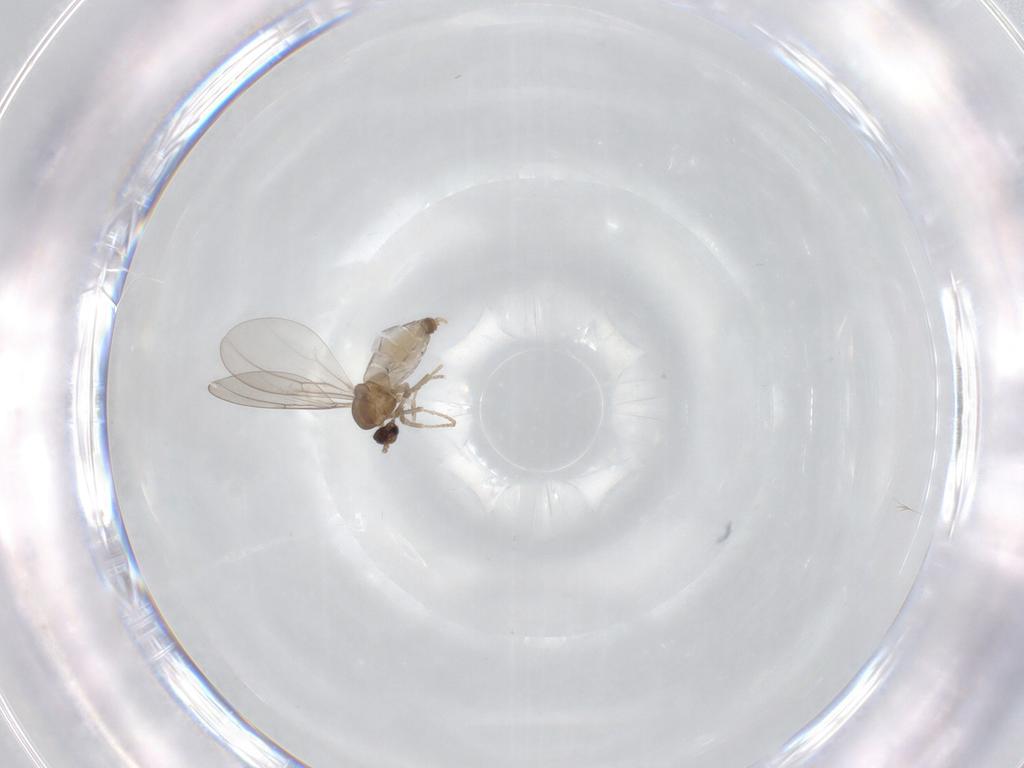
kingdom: Animalia
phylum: Arthropoda
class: Insecta
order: Diptera
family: Cecidomyiidae
